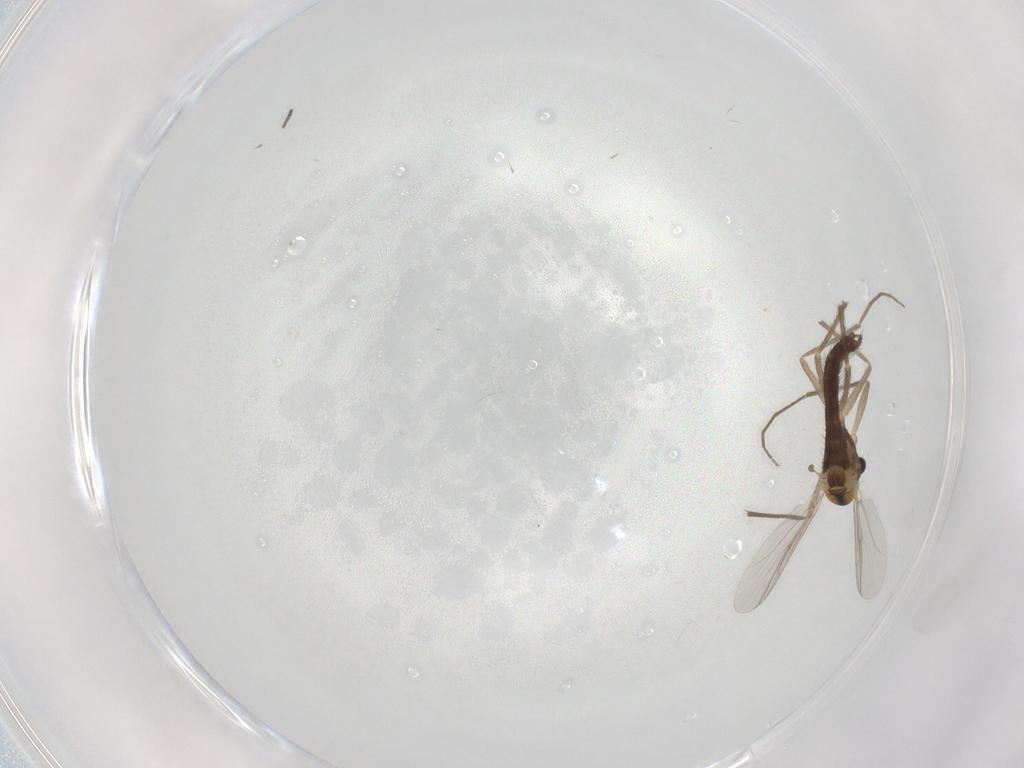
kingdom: Animalia
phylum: Arthropoda
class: Insecta
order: Diptera
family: Chironomidae
